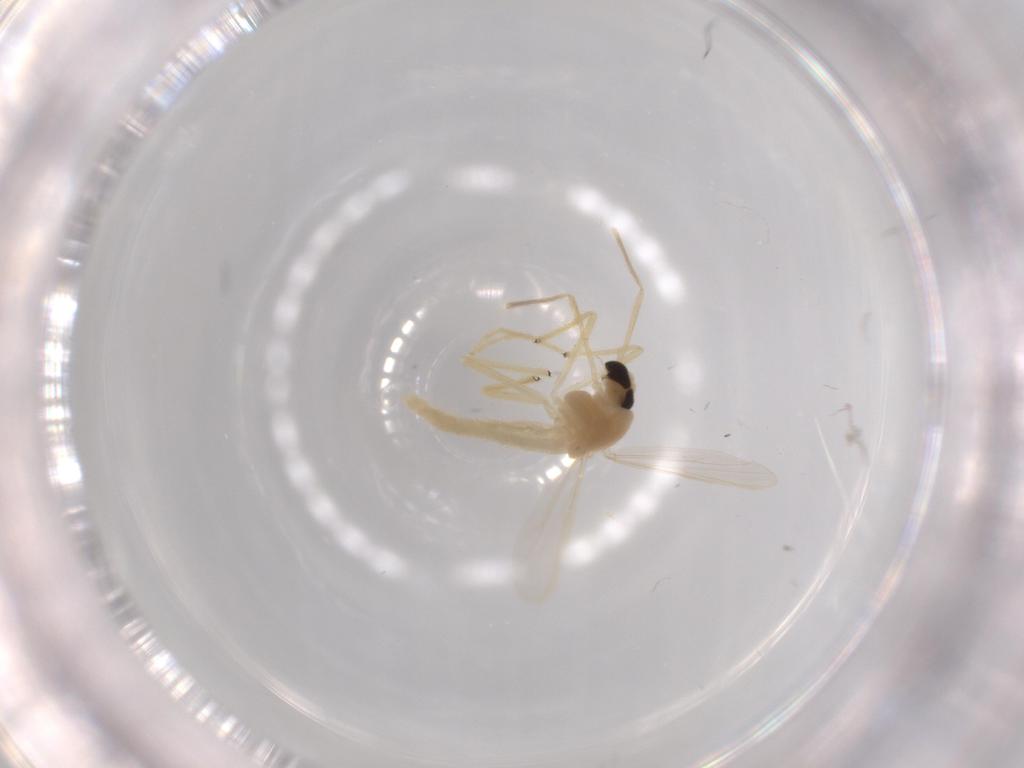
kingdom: Animalia
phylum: Arthropoda
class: Insecta
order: Diptera
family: Chironomidae
